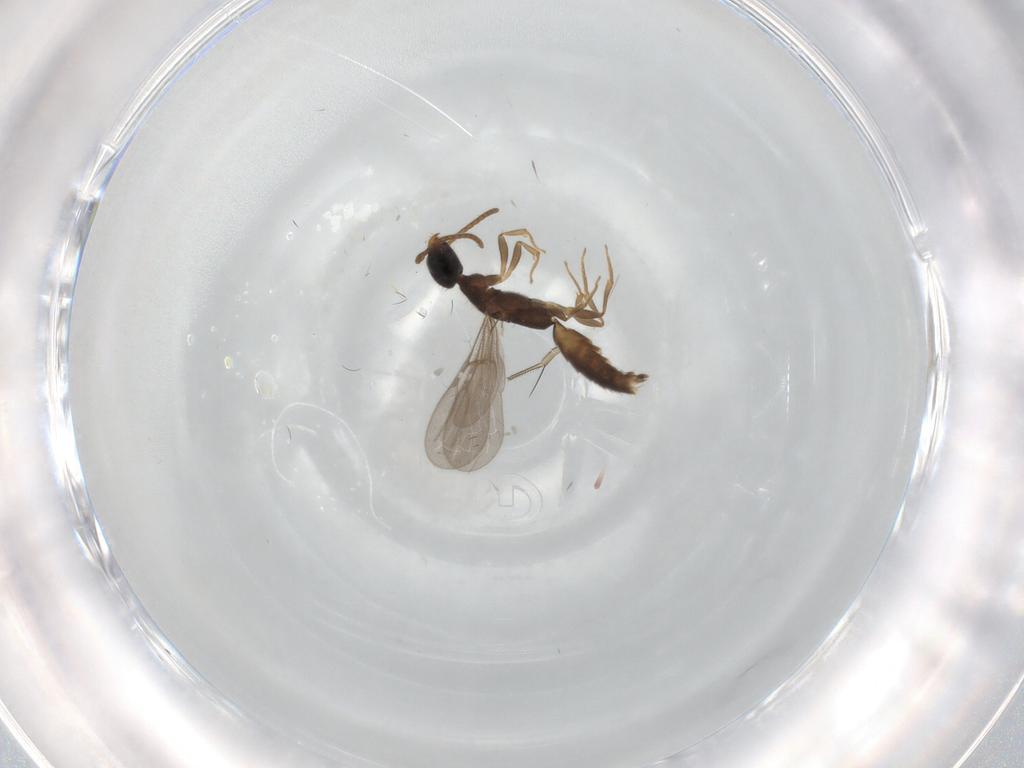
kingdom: Animalia
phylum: Arthropoda
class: Insecta
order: Hymenoptera
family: Bethylidae
